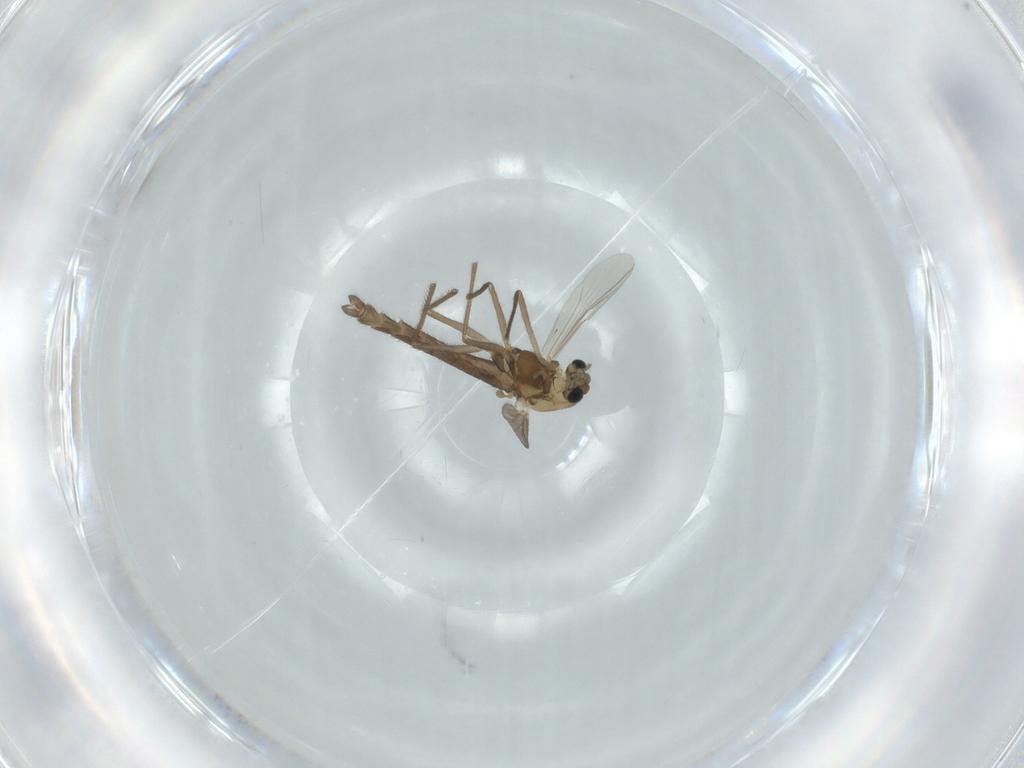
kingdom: Animalia
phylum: Arthropoda
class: Insecta
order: Diptera
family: Chironomidae
